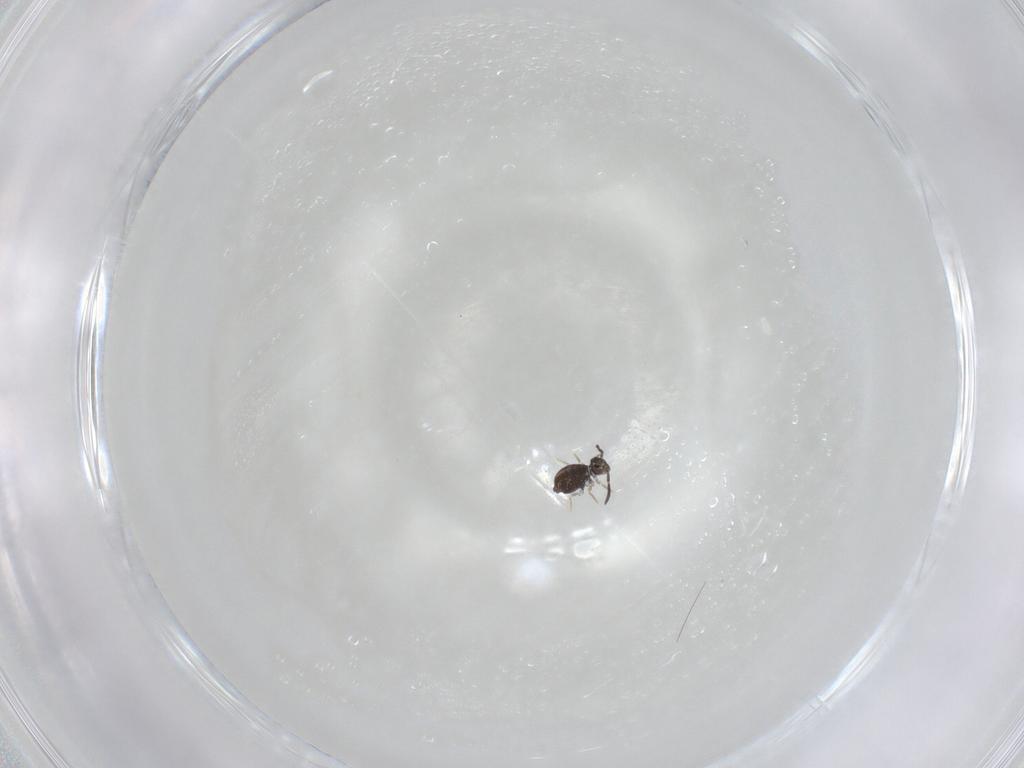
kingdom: Animalia
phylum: Arthropoda
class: Collembola
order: Symphypleona
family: Katiannidae
